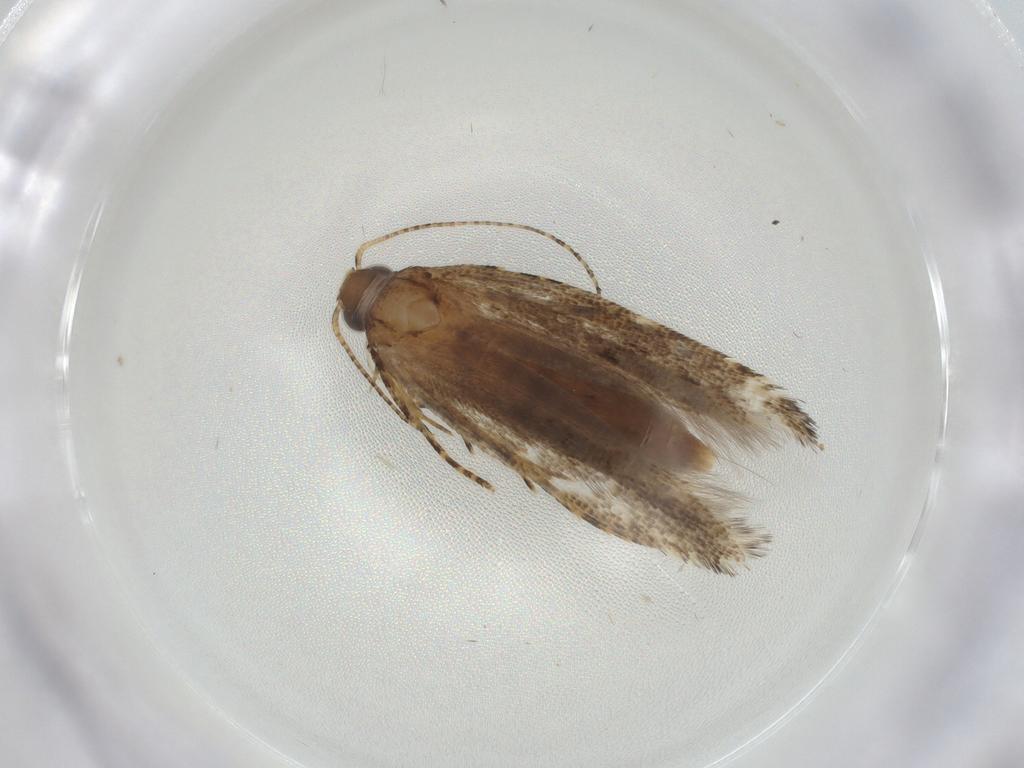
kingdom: Animalia
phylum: Arthropoda
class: Insecta
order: Lepidoptera
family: Gelechiidae
